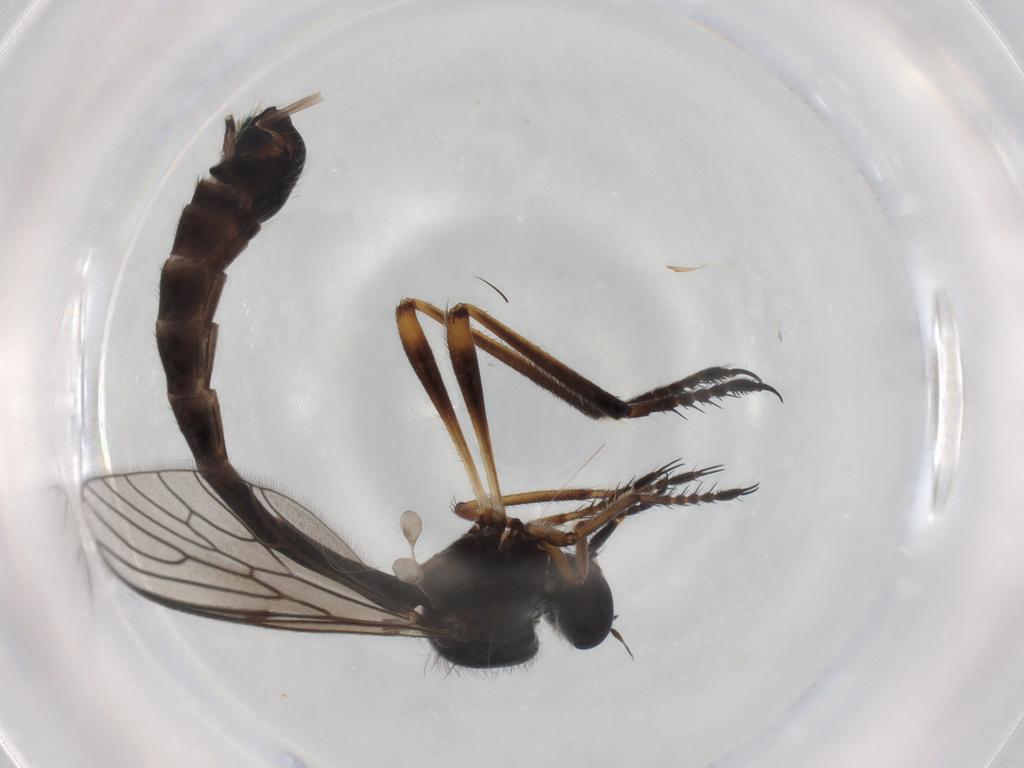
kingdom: Animalia
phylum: Arthropoda
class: Insecta
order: Diptera
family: Asilidae
